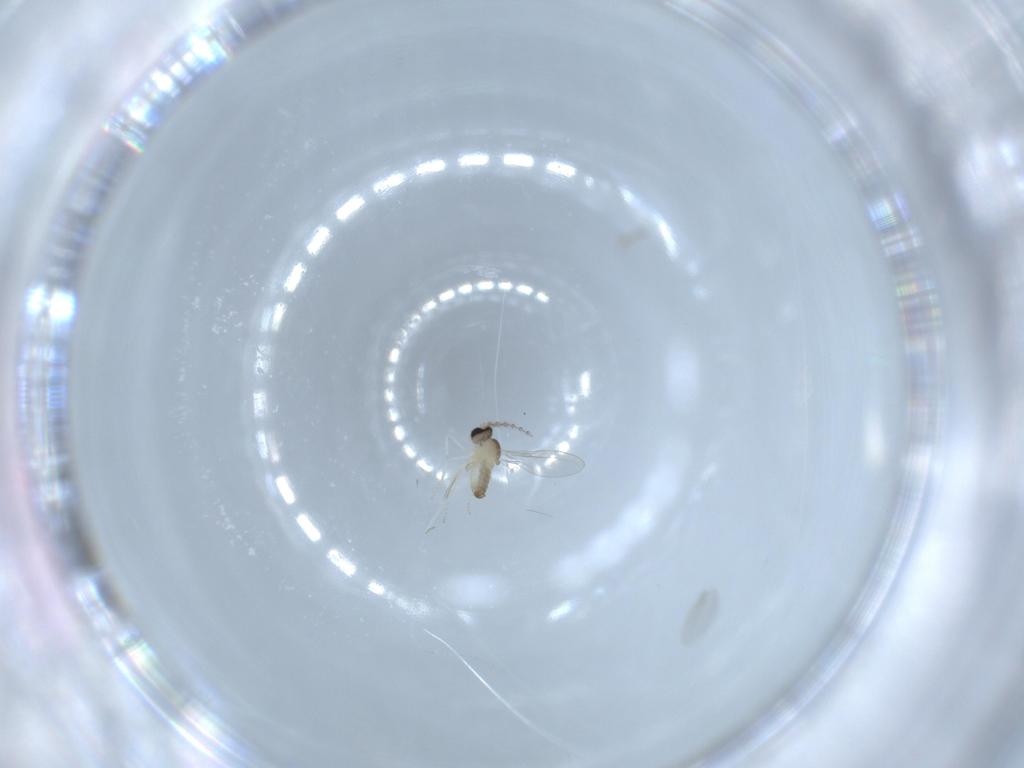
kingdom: Animalia
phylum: Arthropoda
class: Insecta
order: Diptera
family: Cecidomyiidae
